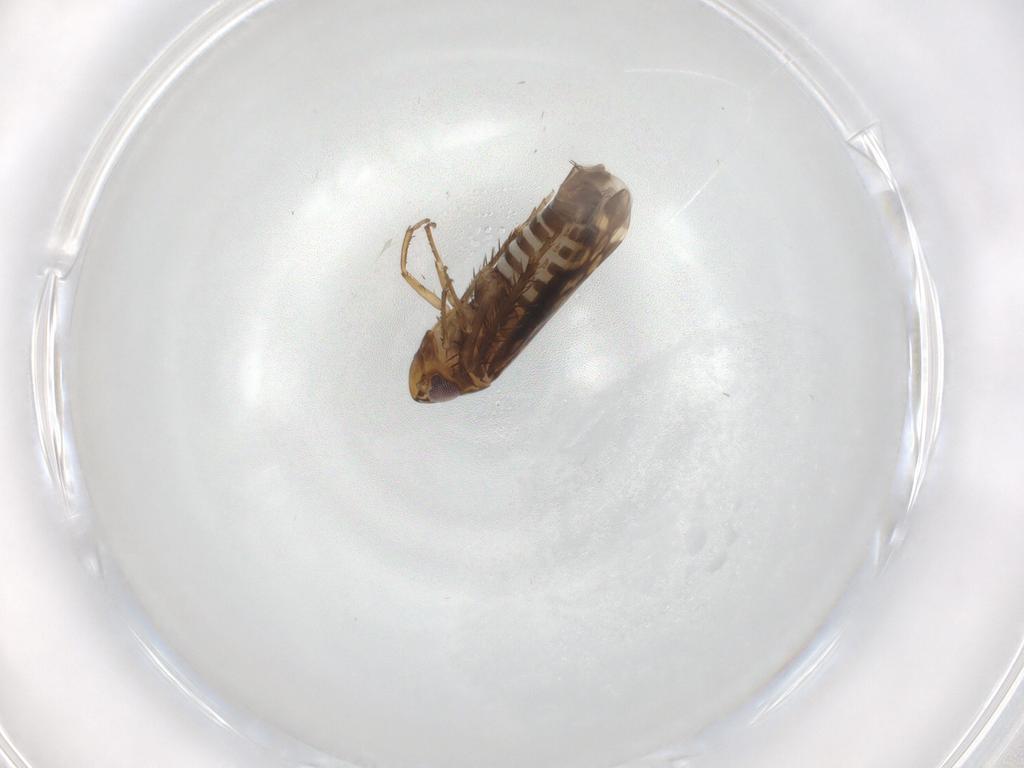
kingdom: Animalia
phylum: Arthropoda
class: Insecta
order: Hemiptera
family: Cicadellidae
